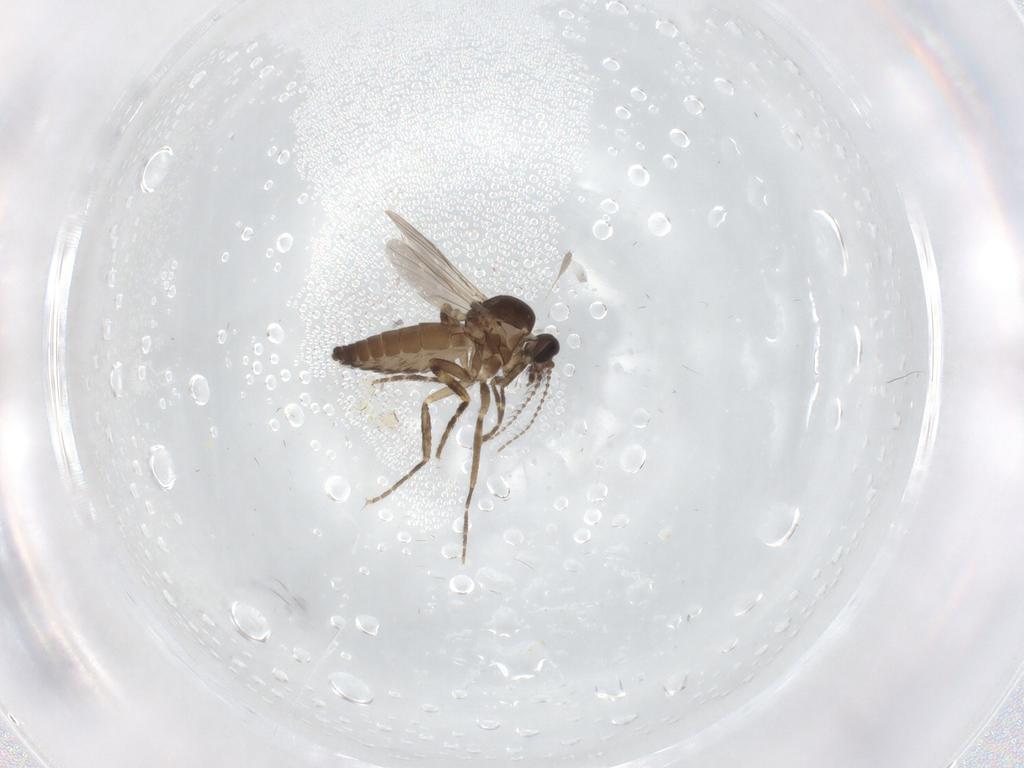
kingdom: Animalia
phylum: Arthropoda
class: Insecta
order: Diptera
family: Ceratopogonidae
